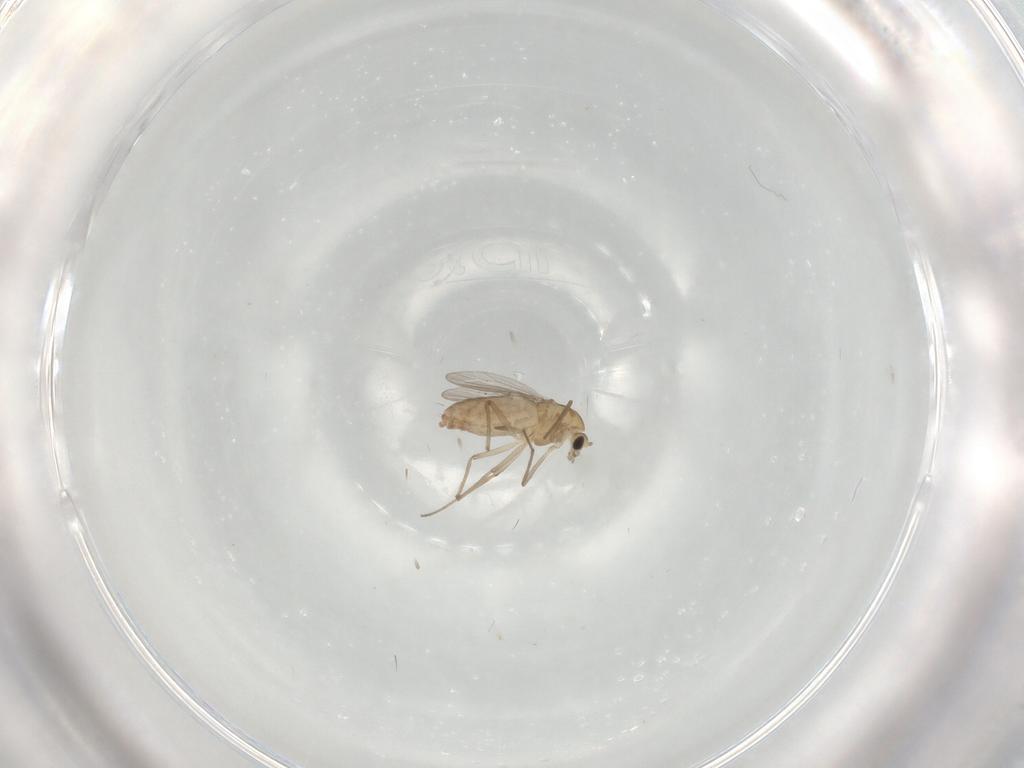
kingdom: Animalia
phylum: Arthropoda
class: Insecta
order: Diptera
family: Chironomidae
